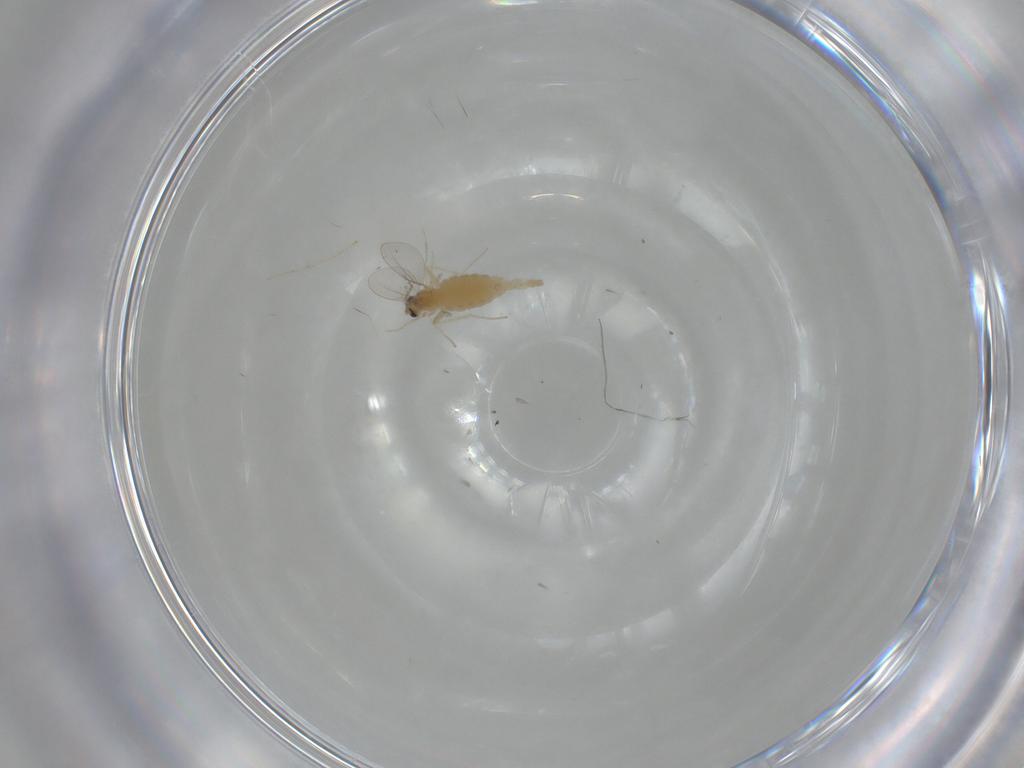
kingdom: Animalia
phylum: Arthropoda
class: Insecta
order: Diptera
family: Cecidomyiidae
